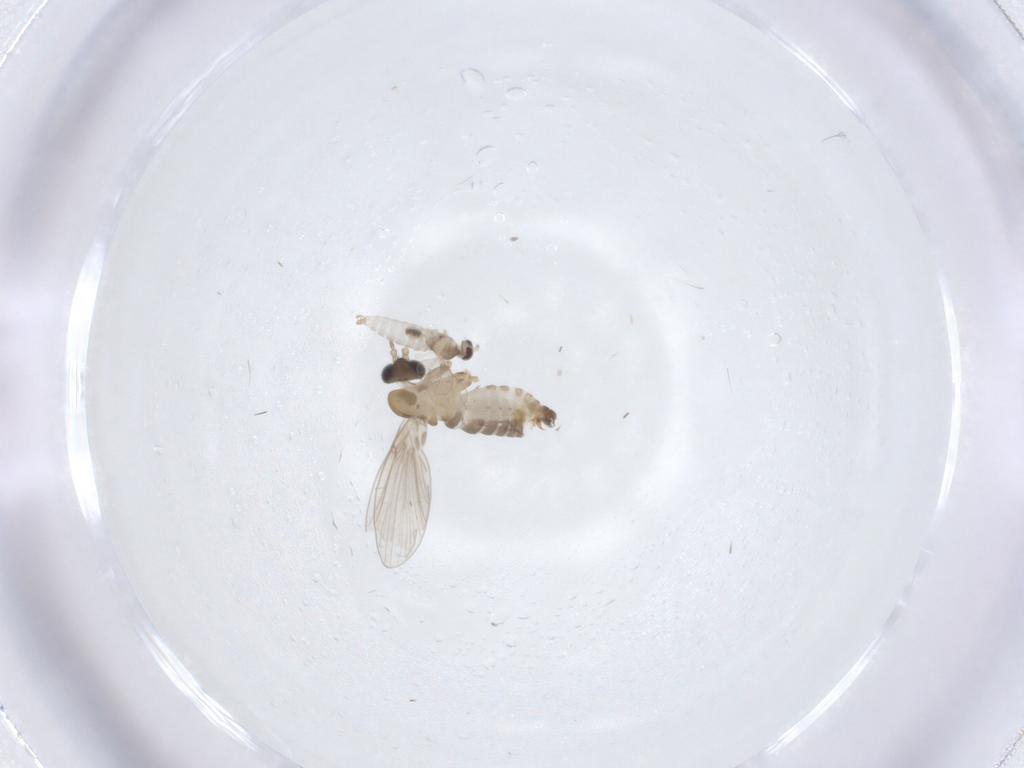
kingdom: Animalia
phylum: Arthropoda
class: Insecta
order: Diptera
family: Psychodidae
